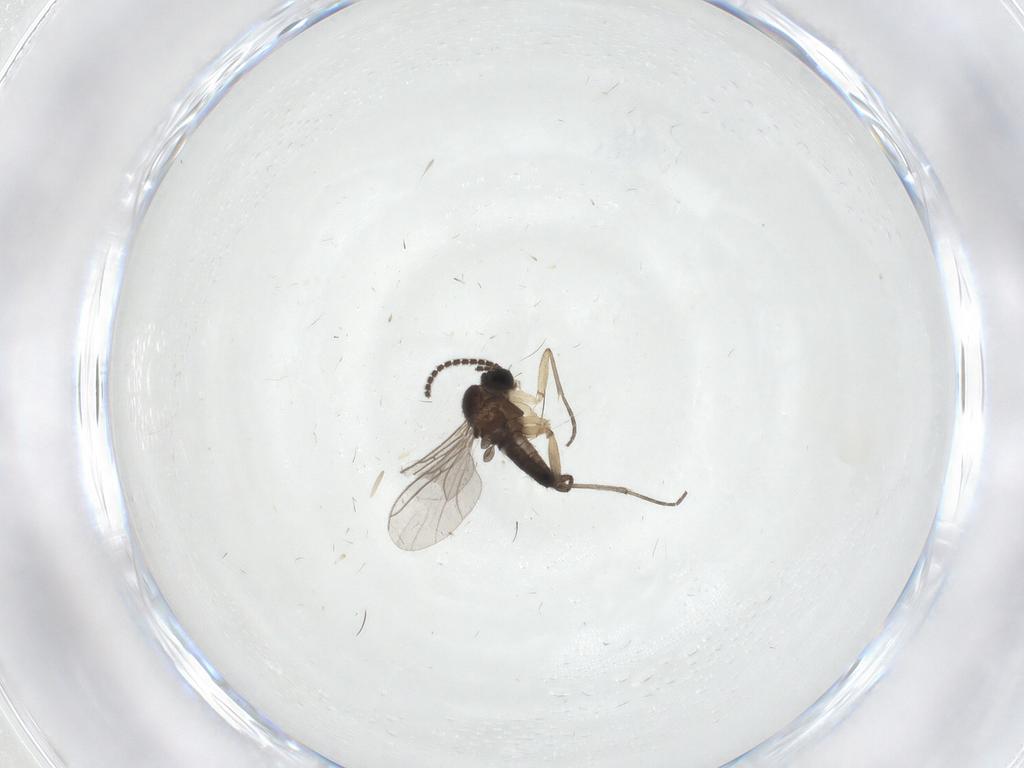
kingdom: Animalia
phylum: Arthropoda
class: Insecta
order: Diptera
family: Sciaridae
